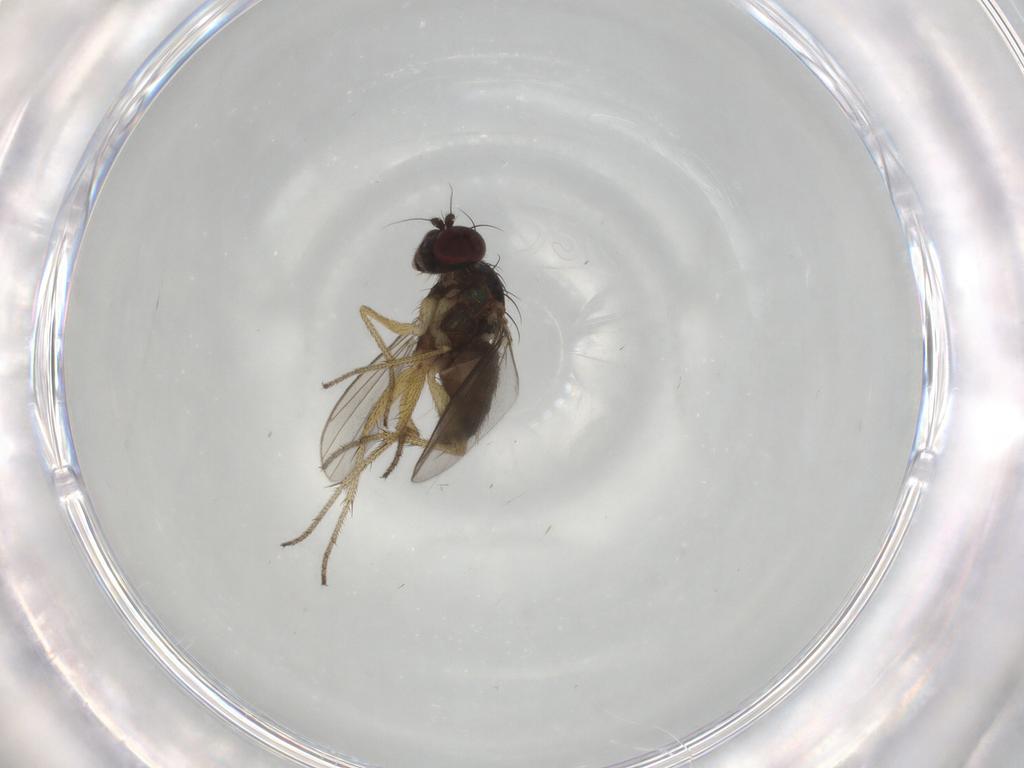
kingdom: Animalia
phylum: Arthropoda
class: Insecta
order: Diptera
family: Dolichopodidae
